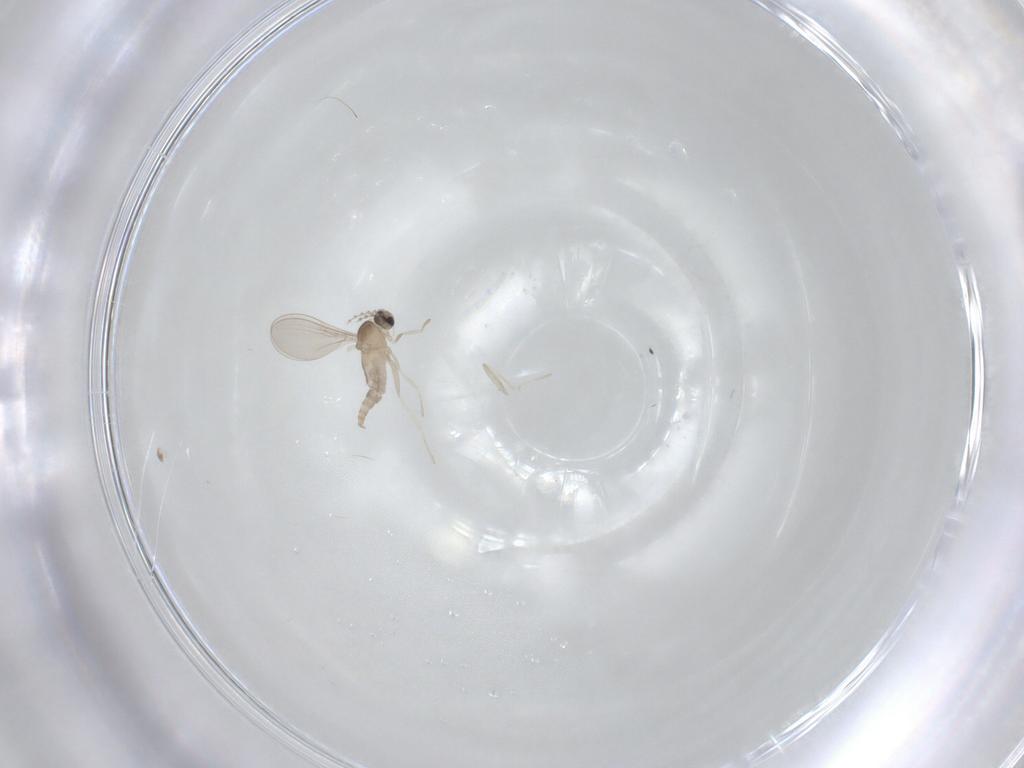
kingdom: Animalia
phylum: Arthropoda
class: Insecta
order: Diptera
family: Cecidomyiidae
